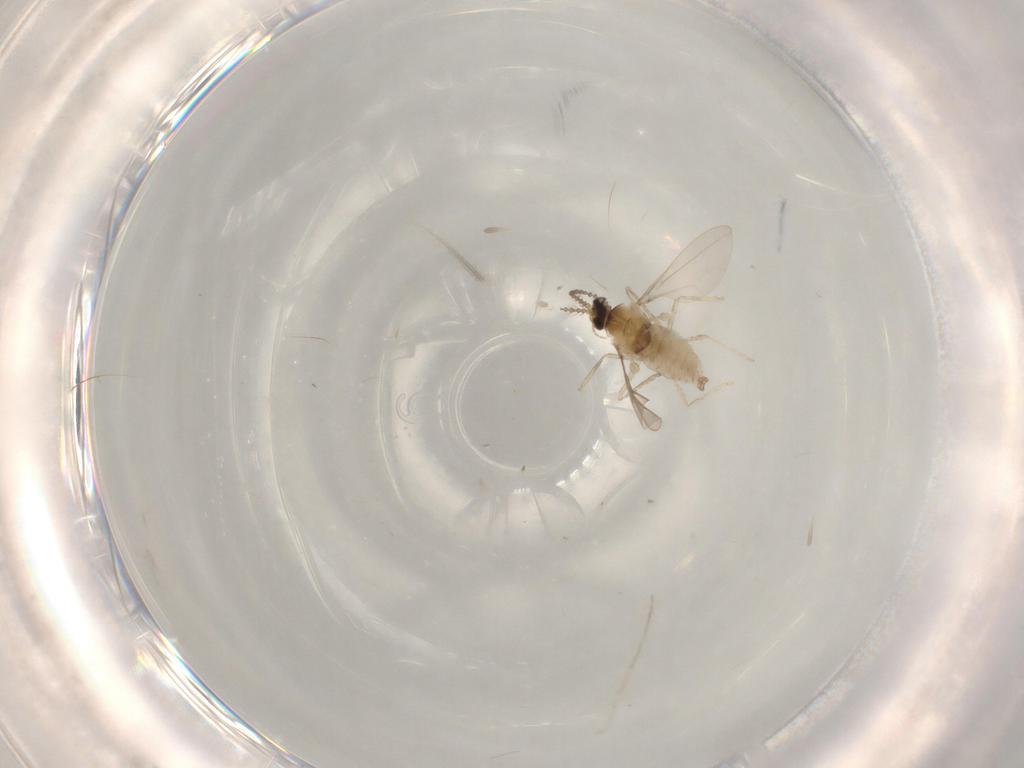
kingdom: Animalia
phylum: Arthropoda
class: Insecta
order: Diptera
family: Cecidomyiidae
